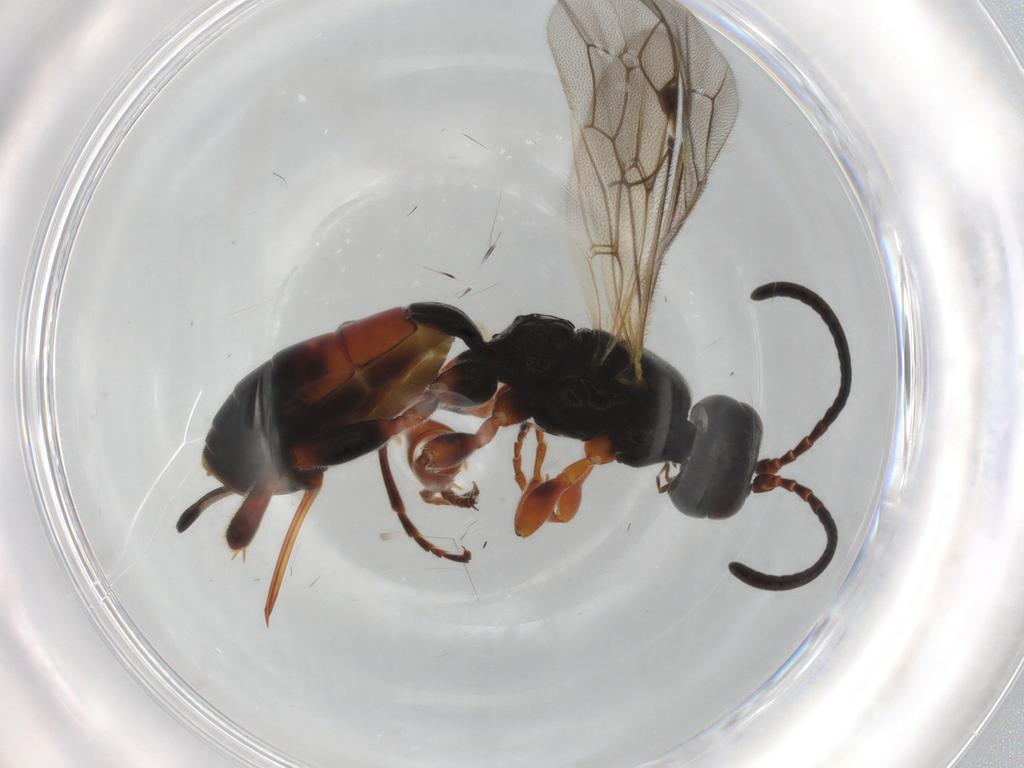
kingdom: Animalia
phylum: Arthropoda
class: Insecta
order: Hymenoptera
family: Ichneumonidae
